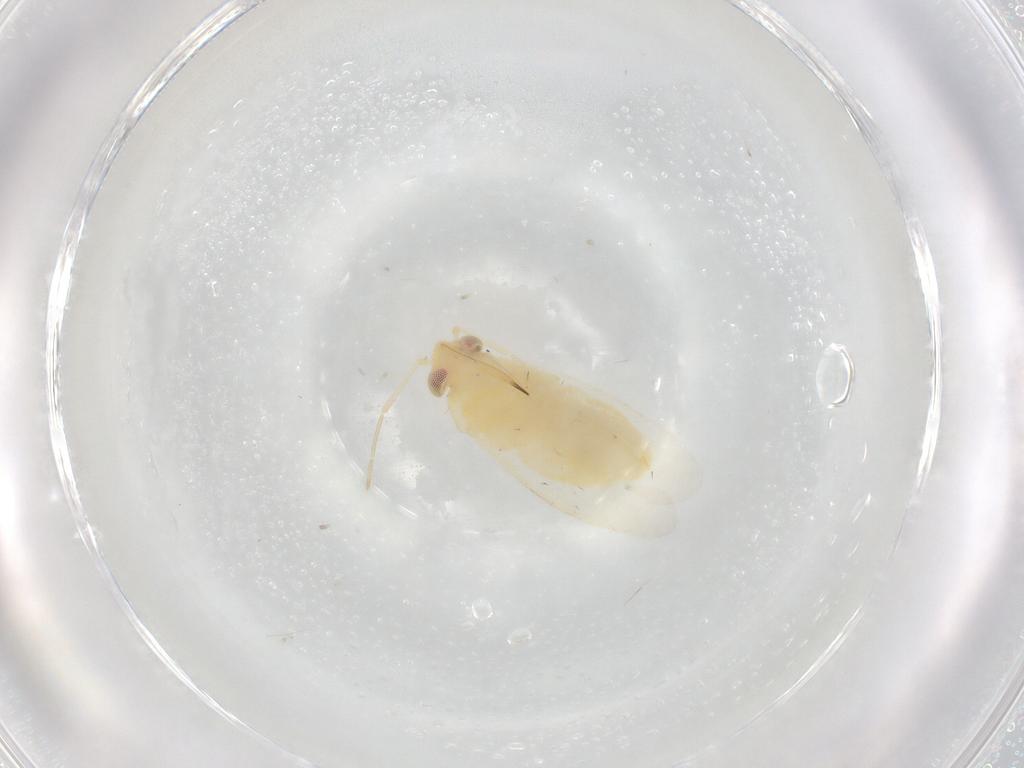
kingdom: Animalia
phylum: Arthropoda
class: Insecta
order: Hemiptera
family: Miridae
